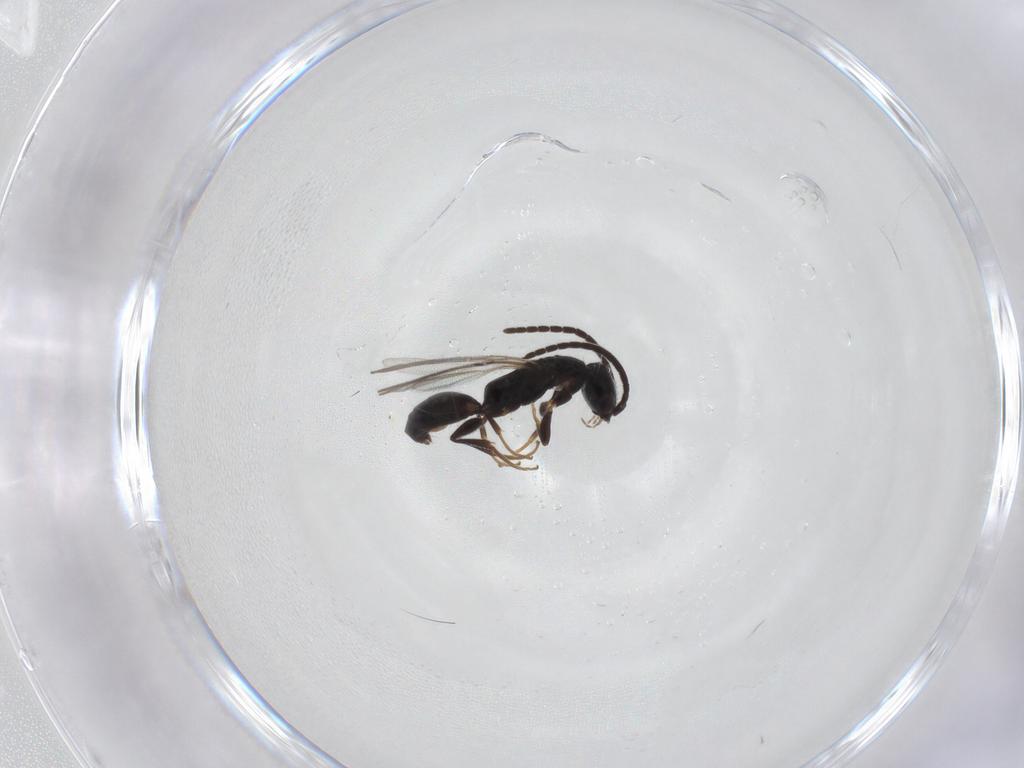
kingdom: Animalia
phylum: Arthropoda
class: Insecta
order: Hymenoptera
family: Bethylidae
